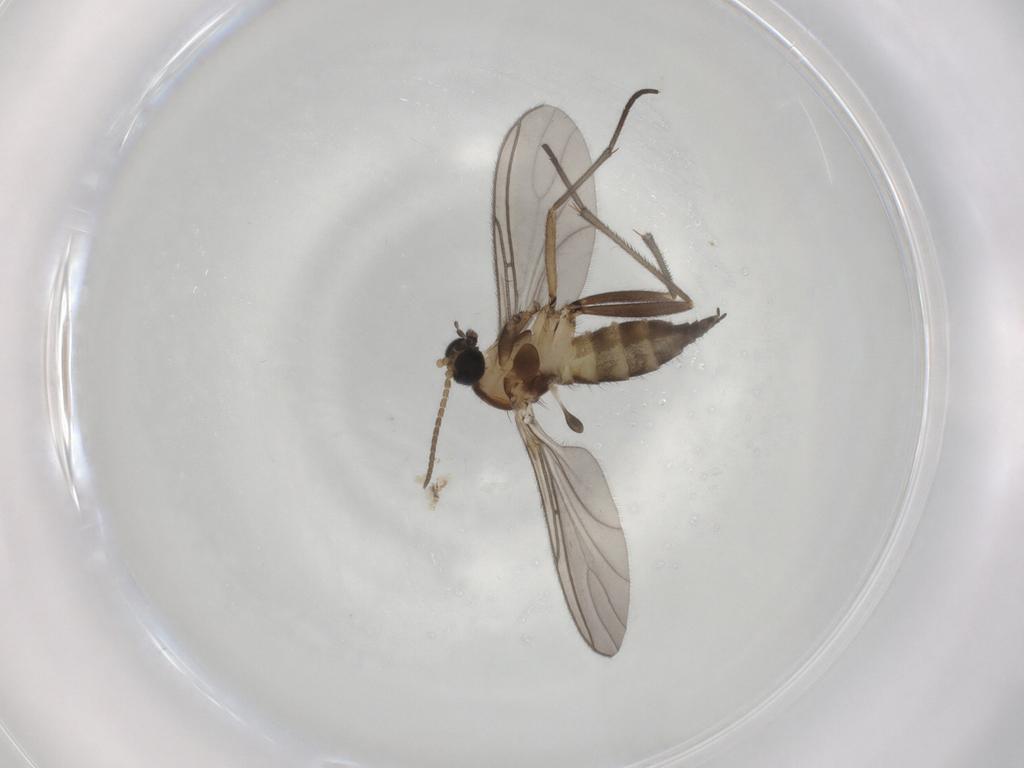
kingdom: Animalia
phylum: Arthropoda
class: Insecta
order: Diptera
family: Sciaridae
